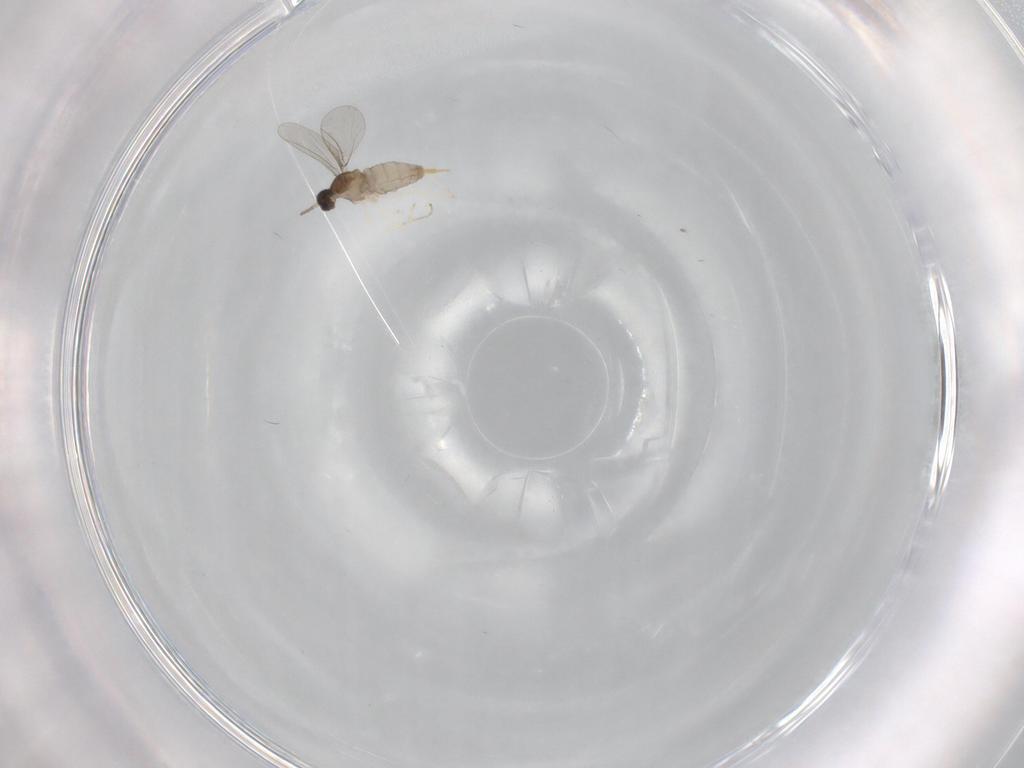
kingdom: Animalia
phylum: Arthropoda
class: Insecta
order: Diptera
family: Cecidomyiidae
